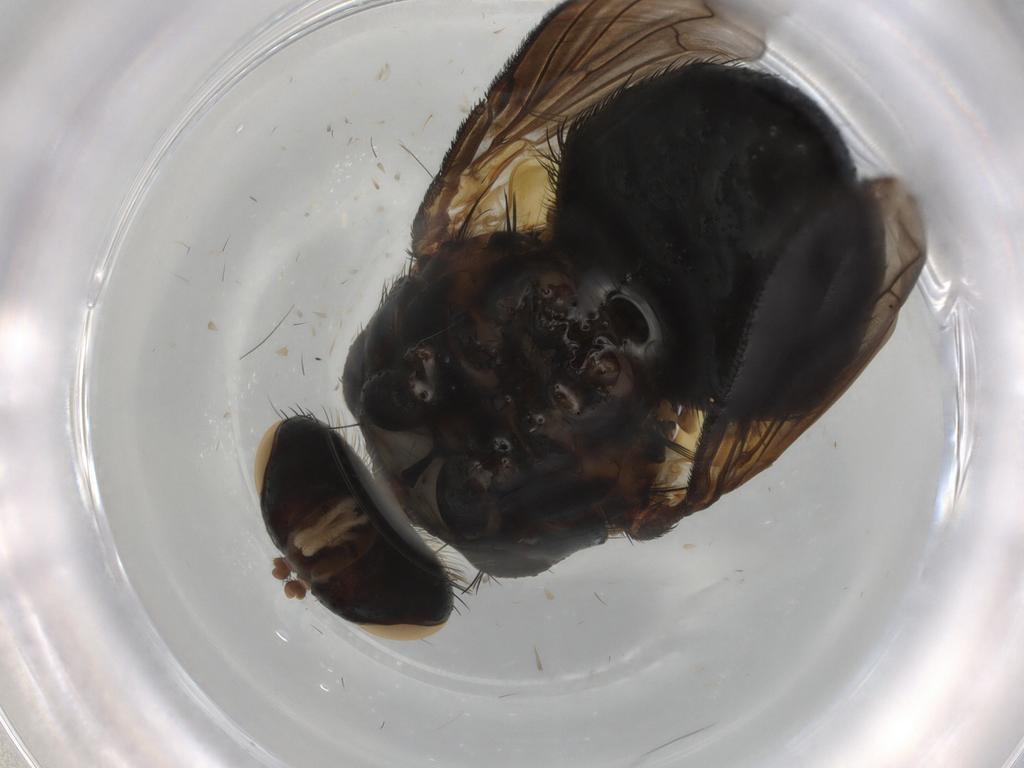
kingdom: Animalia
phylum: Arthropoda
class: Insecta
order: Diptera
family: Tachinidae
